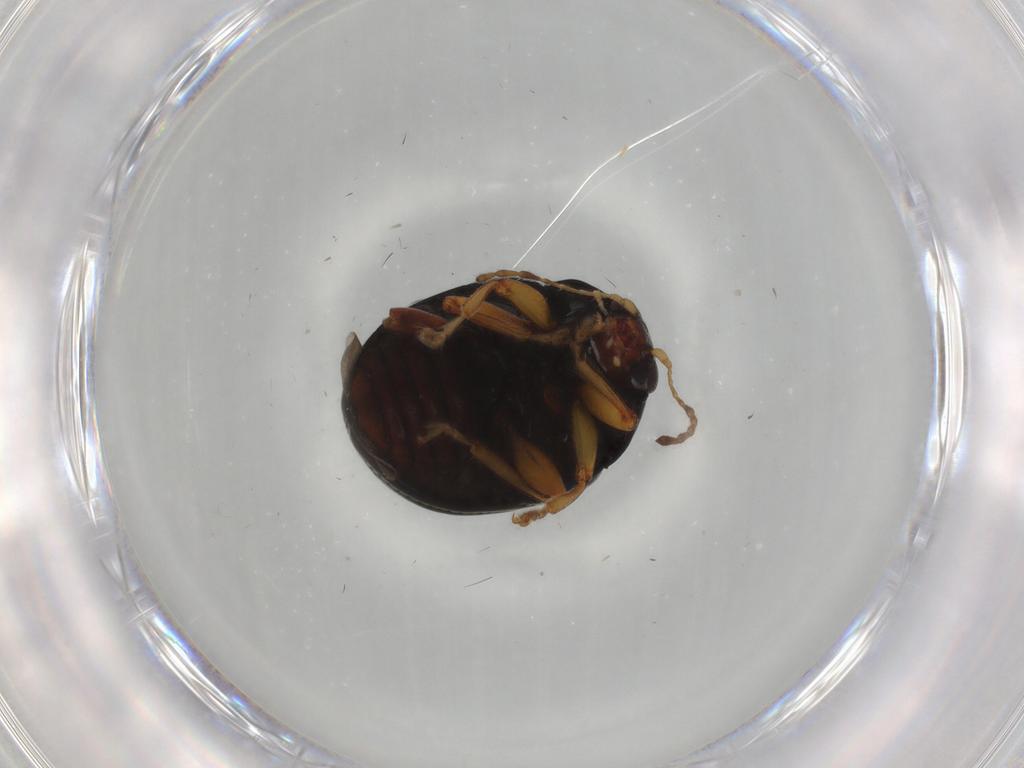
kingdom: Animalia
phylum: Arthropoda
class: Insecta
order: Coleoptera
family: Chrysomelidae
